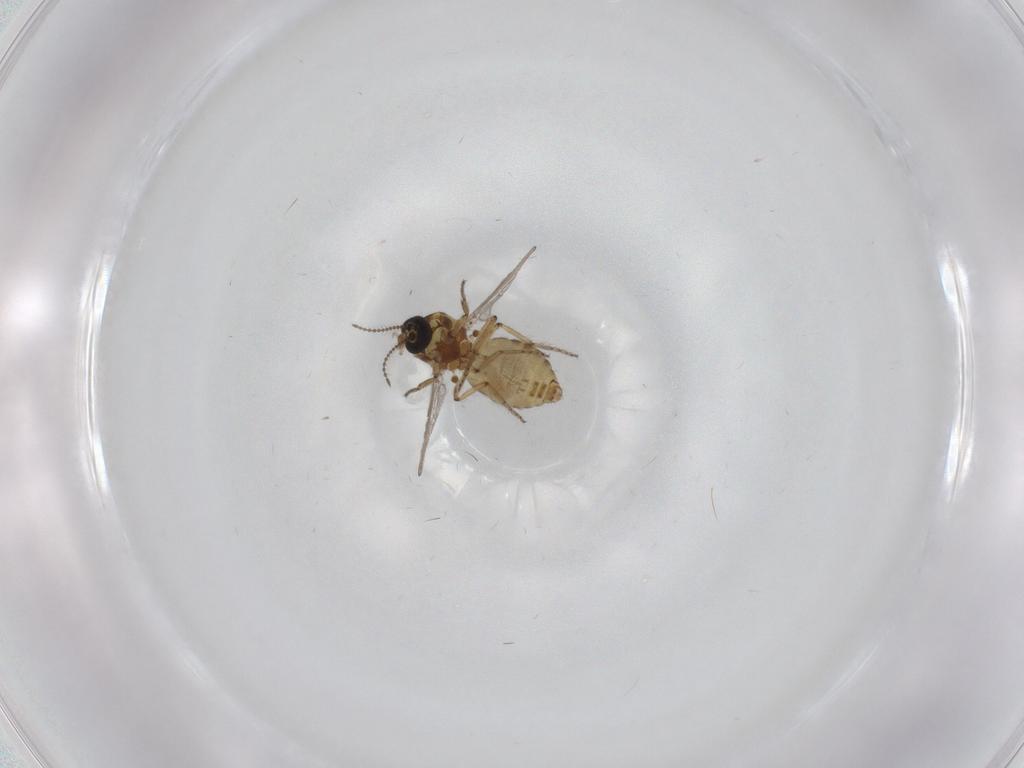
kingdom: Animalia
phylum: Arthropoda
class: Insecta
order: Diptera
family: Ceratopogonidae
